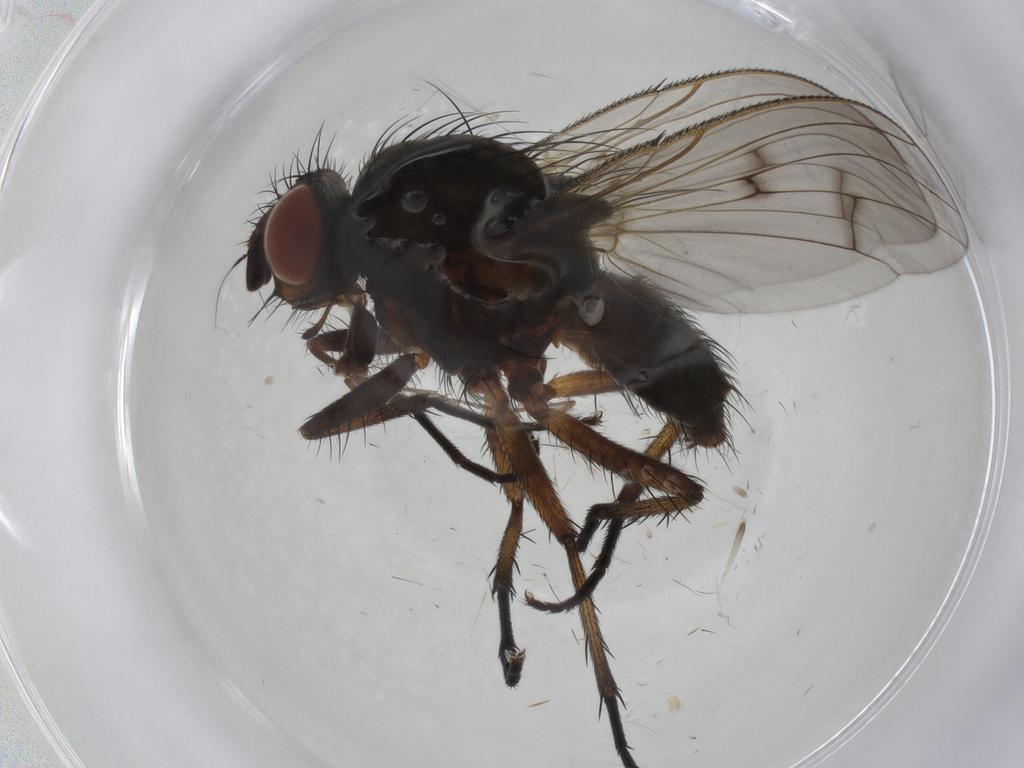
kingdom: Animalia
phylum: Arthropoda
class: Insecta
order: Diptera
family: Anthomyiidae
